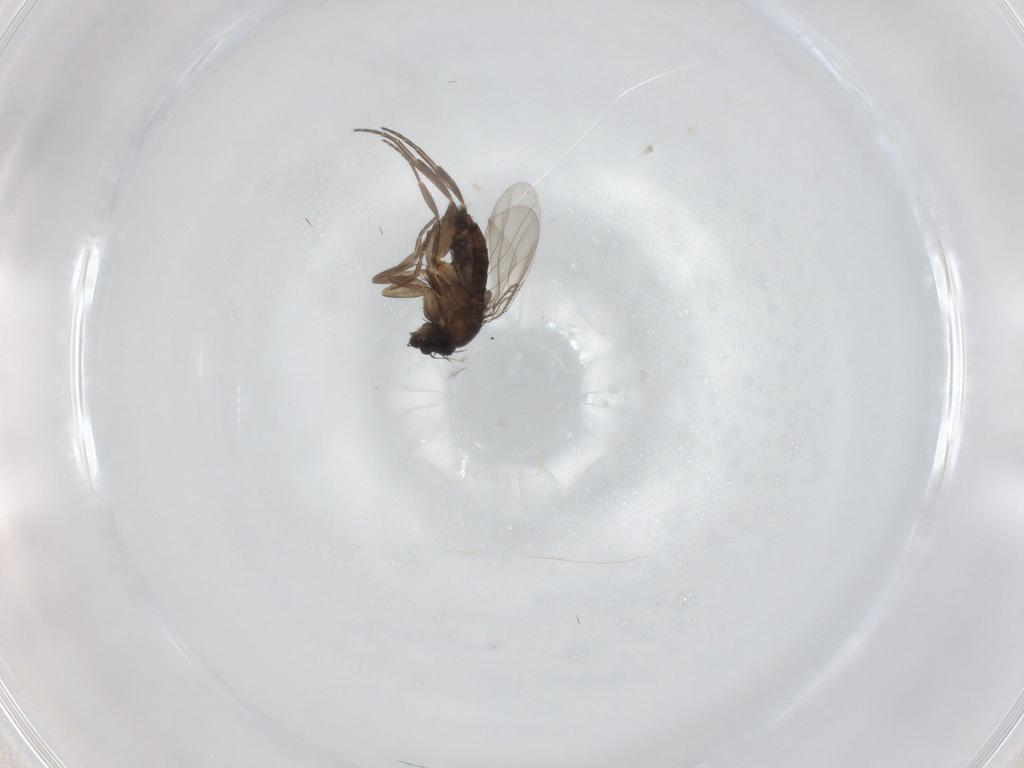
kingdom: Animalia
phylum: Arthropoda
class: Insecta
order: Diptera
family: Phoridae
